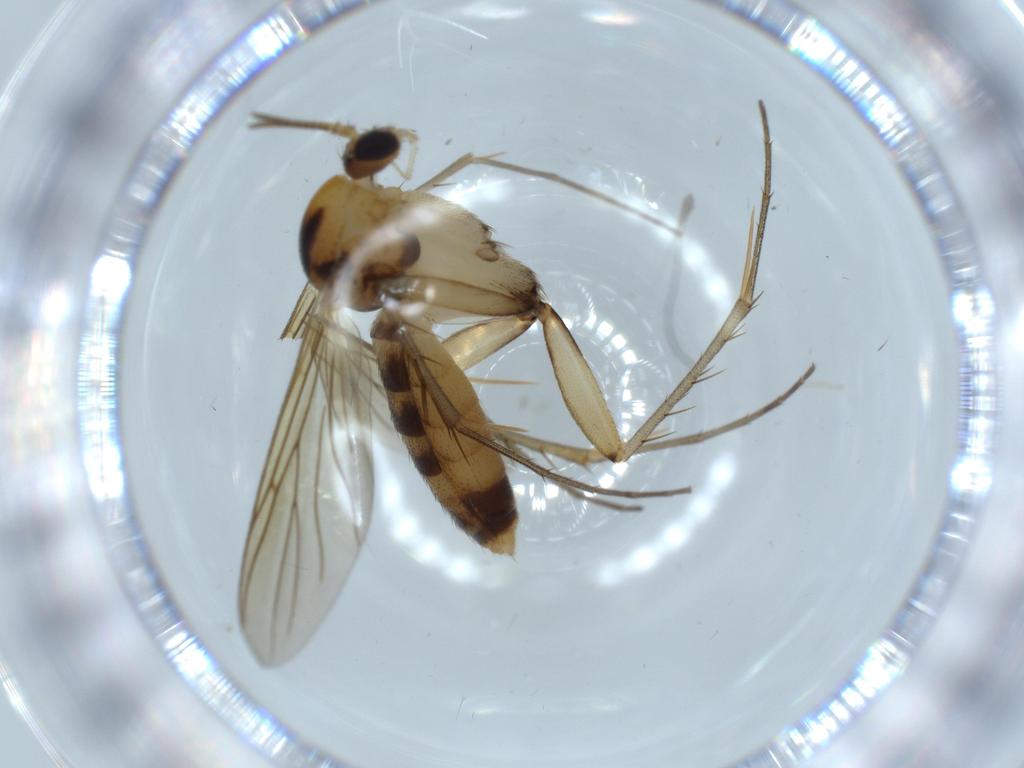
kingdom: Animalia
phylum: Arthropoda
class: Insecta
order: Diptera
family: Mycetophilidae
